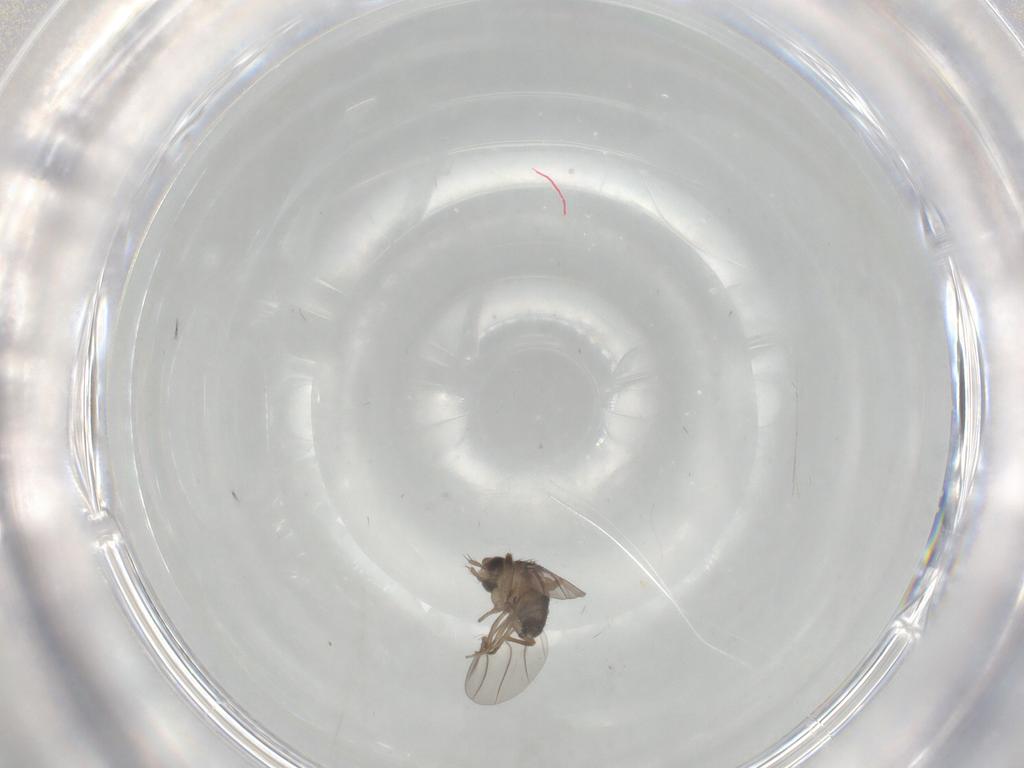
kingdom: Animalia
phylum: Arthropoda
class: Insecta
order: Diptera
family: Phoridae
